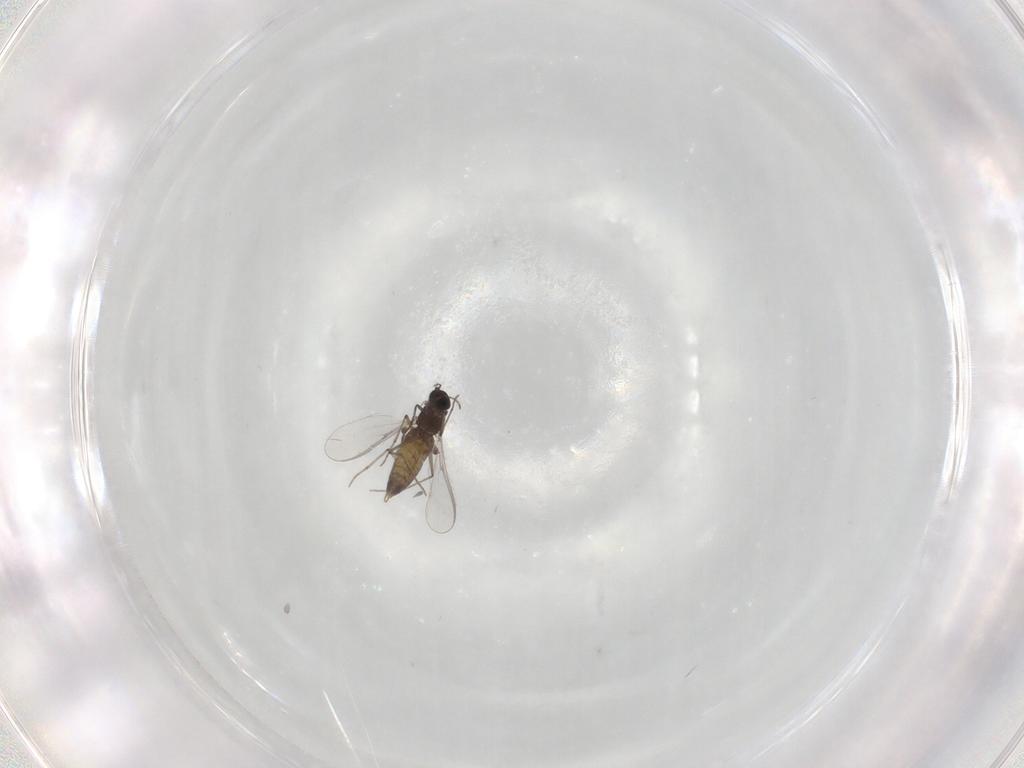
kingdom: Animalia
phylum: Arthropoda
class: Insecta
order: Diptera
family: Chironomidae
